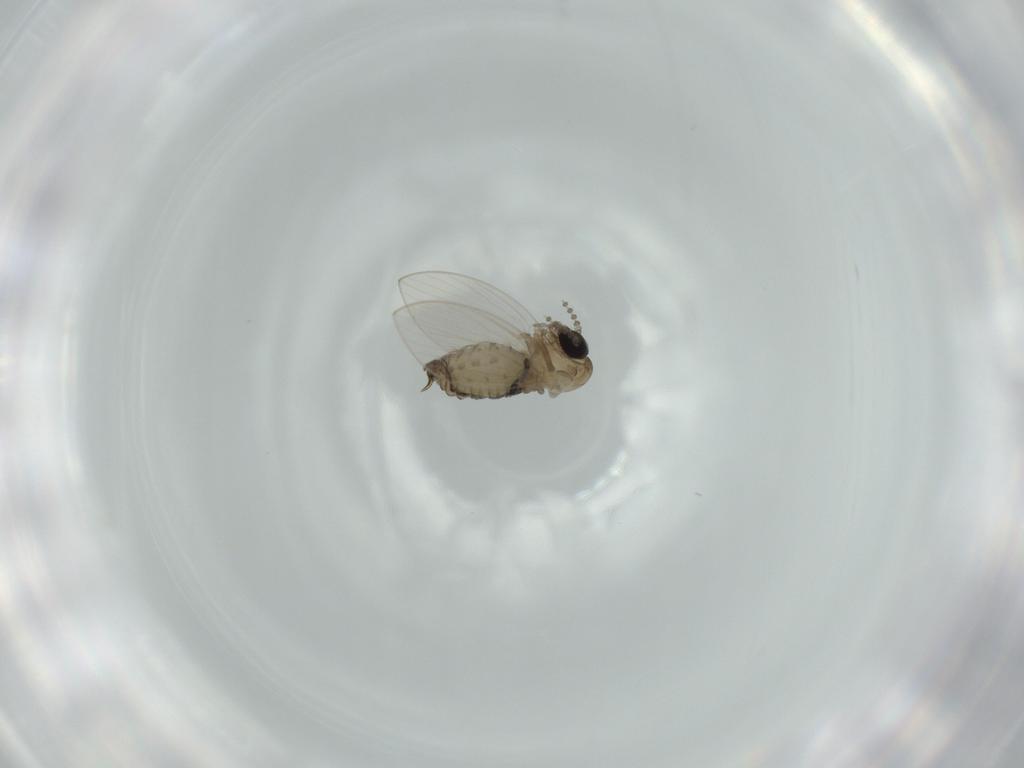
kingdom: Animalia
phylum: Arthropoda
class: Insecta
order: Diptera
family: Psychodidae
